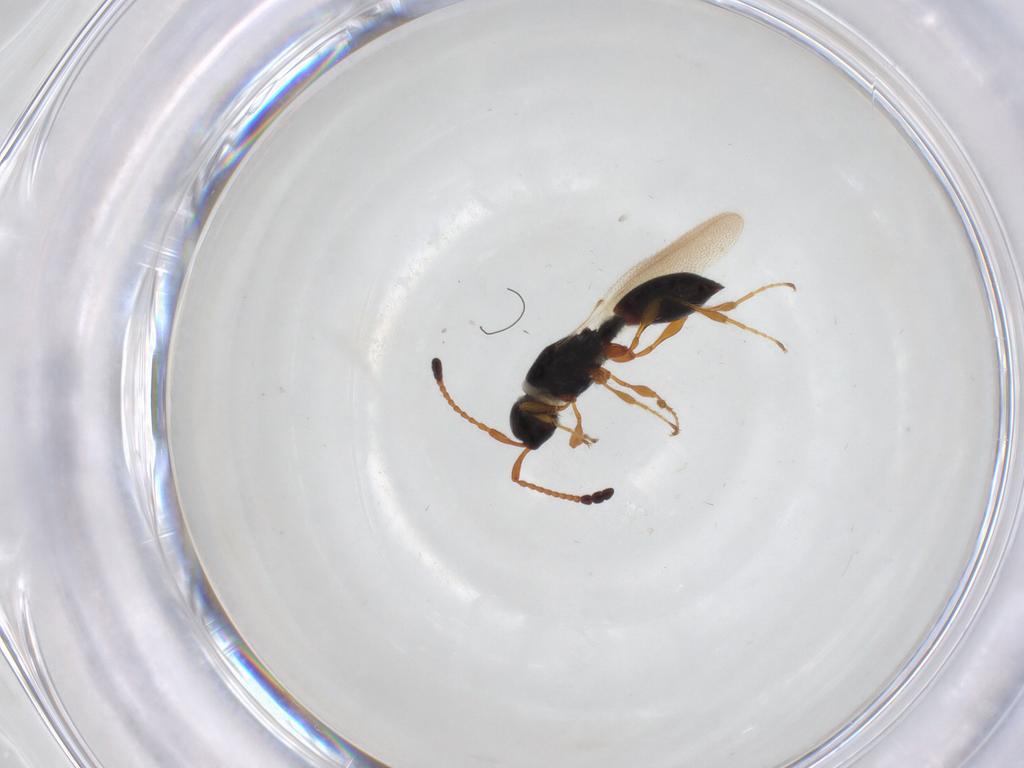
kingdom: Animalia
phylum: Arthropoda
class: Insecta
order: Hymenoptera
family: Diapriidae
